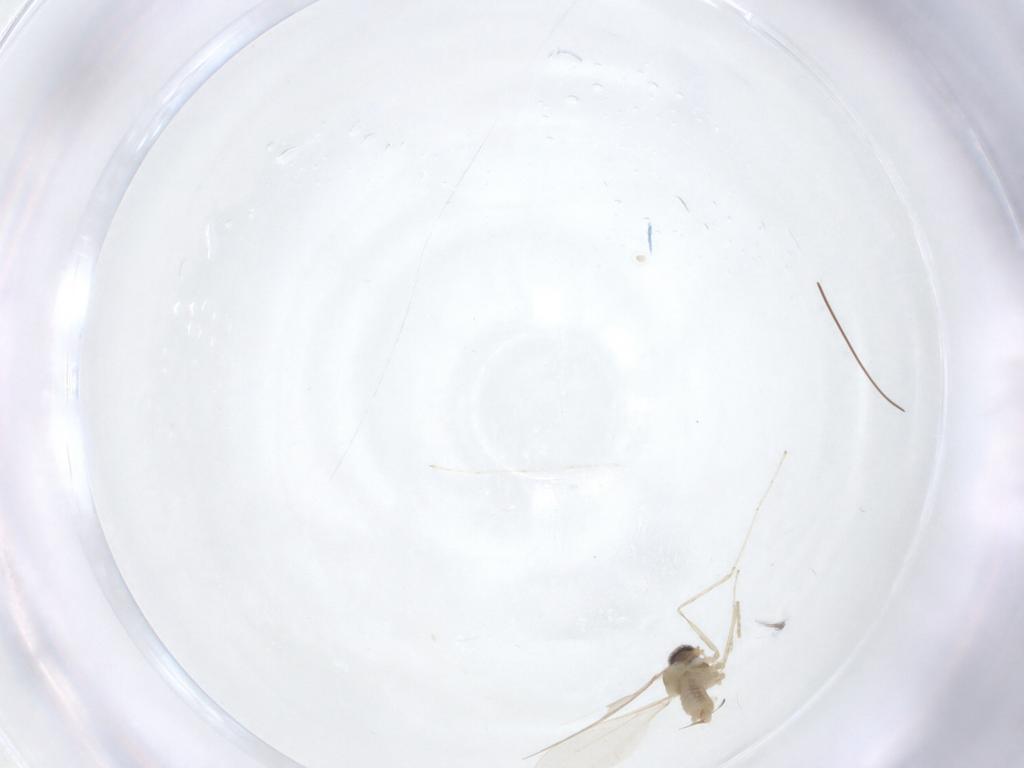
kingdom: Animalia
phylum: Arthropoda
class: Insecta
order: Diptera
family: Cecidomyiidae
